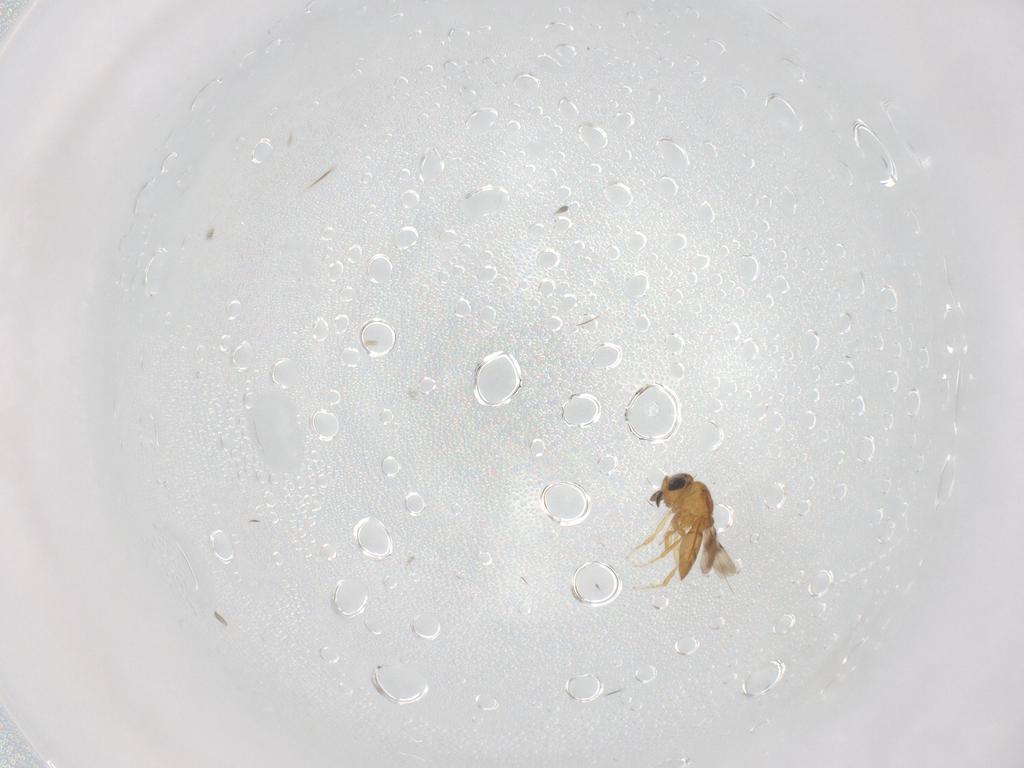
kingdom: Animalia
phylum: Arthropoda
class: Insecta
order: Hymenoptera
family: Scelionidae
